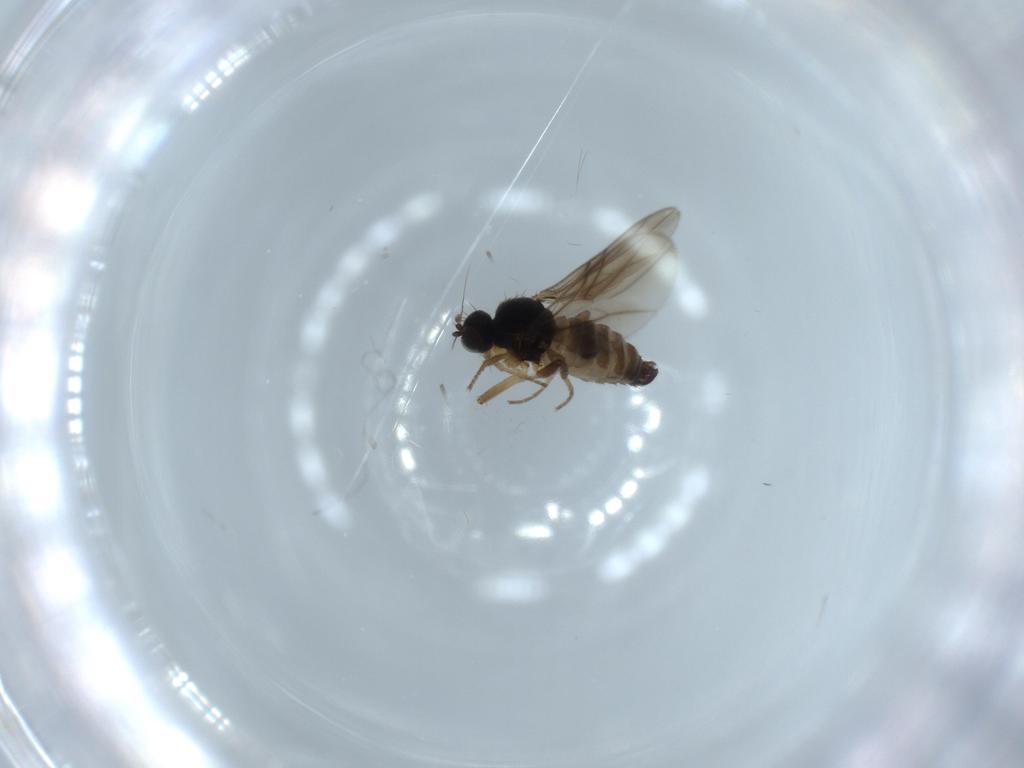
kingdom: Animalia
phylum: Arthropoda
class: Insecta
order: Diptera
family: Hybotidae
